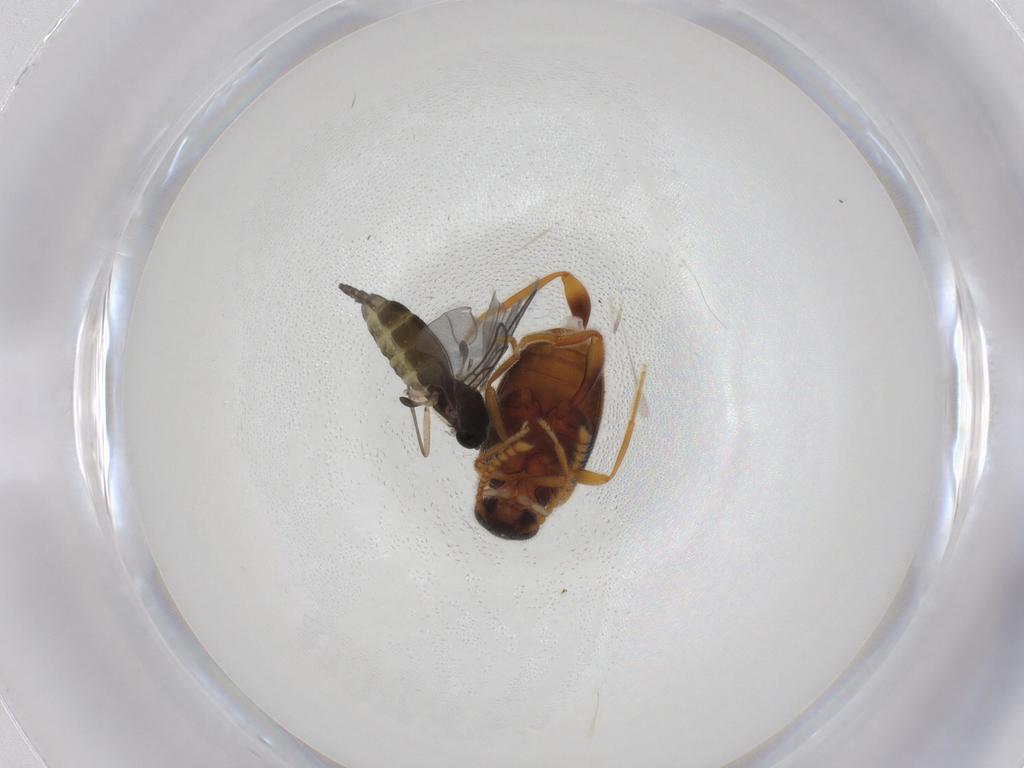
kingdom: Animalia
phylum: Arthropoda
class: Insecta
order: Coleoptera
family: Aderidae
